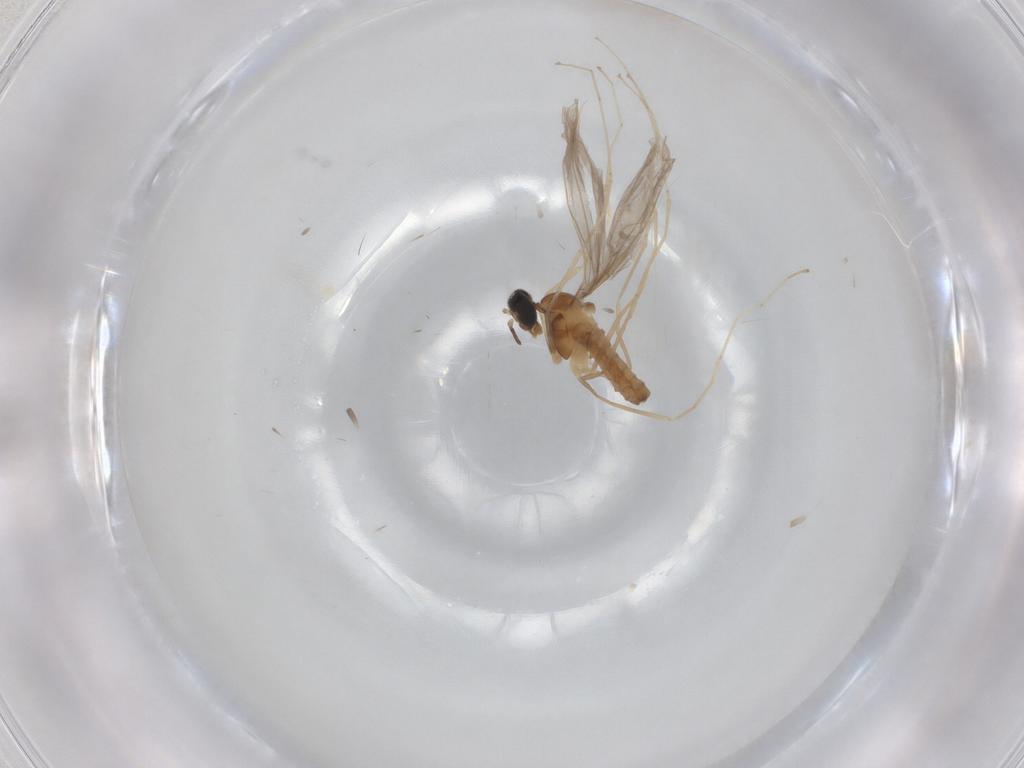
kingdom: Animalia
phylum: Arthropoda
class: Insecta
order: Diptera
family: Cecidomyiidae
